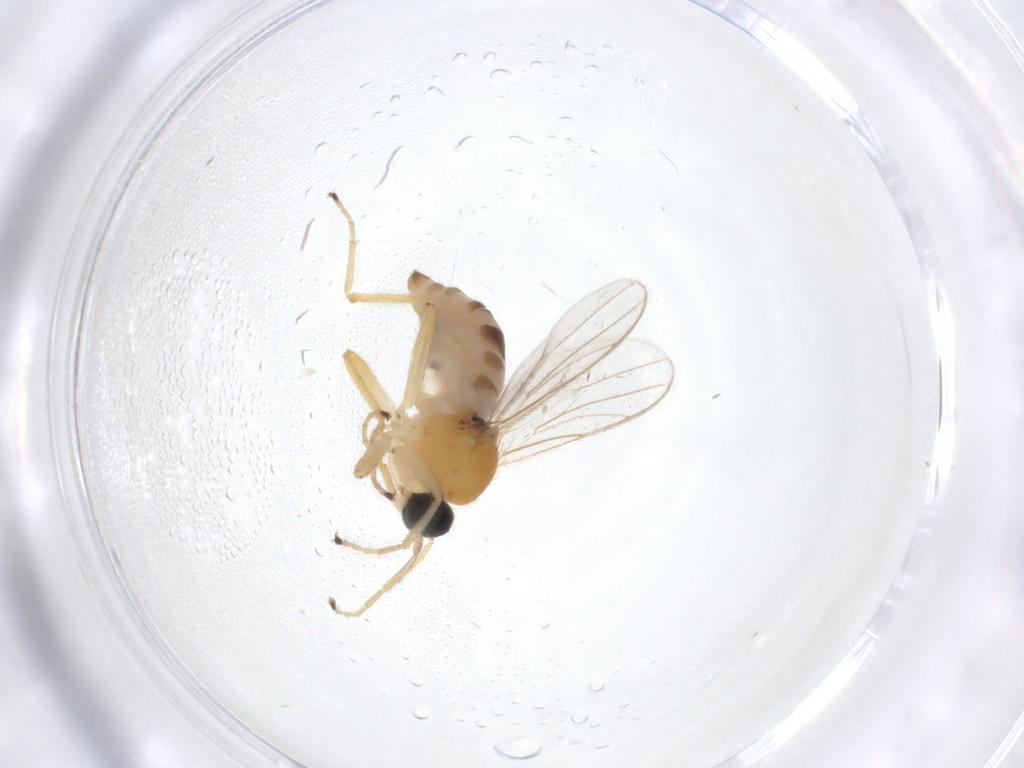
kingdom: Animalia
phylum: Arthropoda
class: Insecta
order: Diptera
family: Hybotidae
